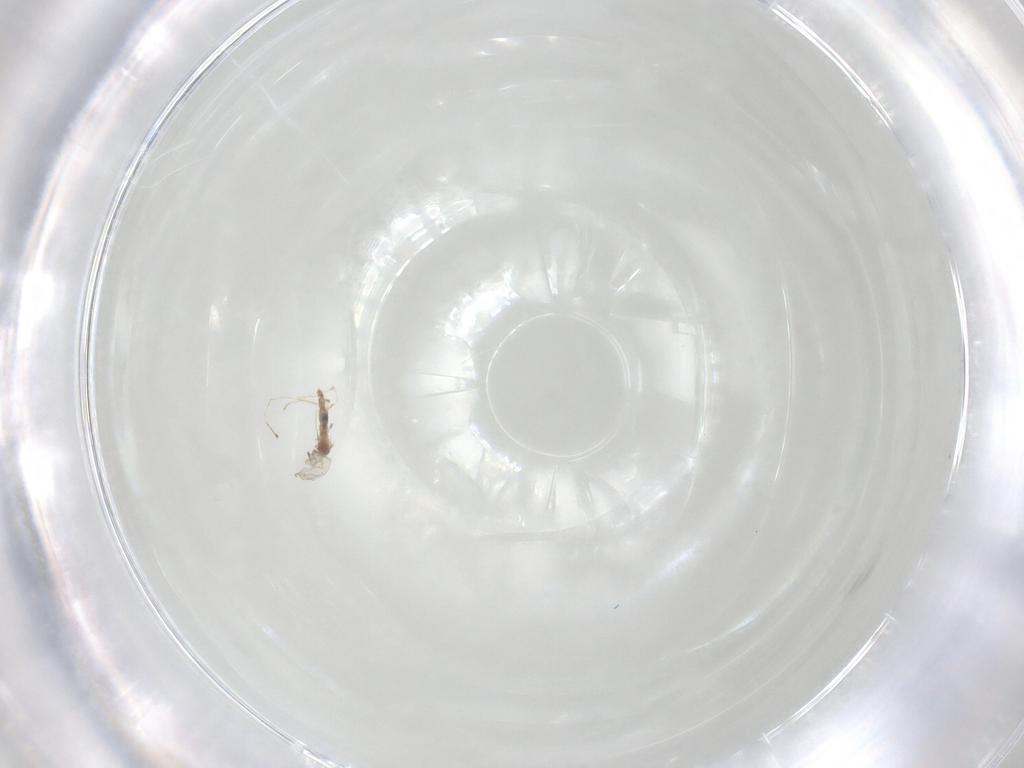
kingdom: Animalia
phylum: Arthropoda
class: Insecta
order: Diptera
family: Cecidomyiidae
